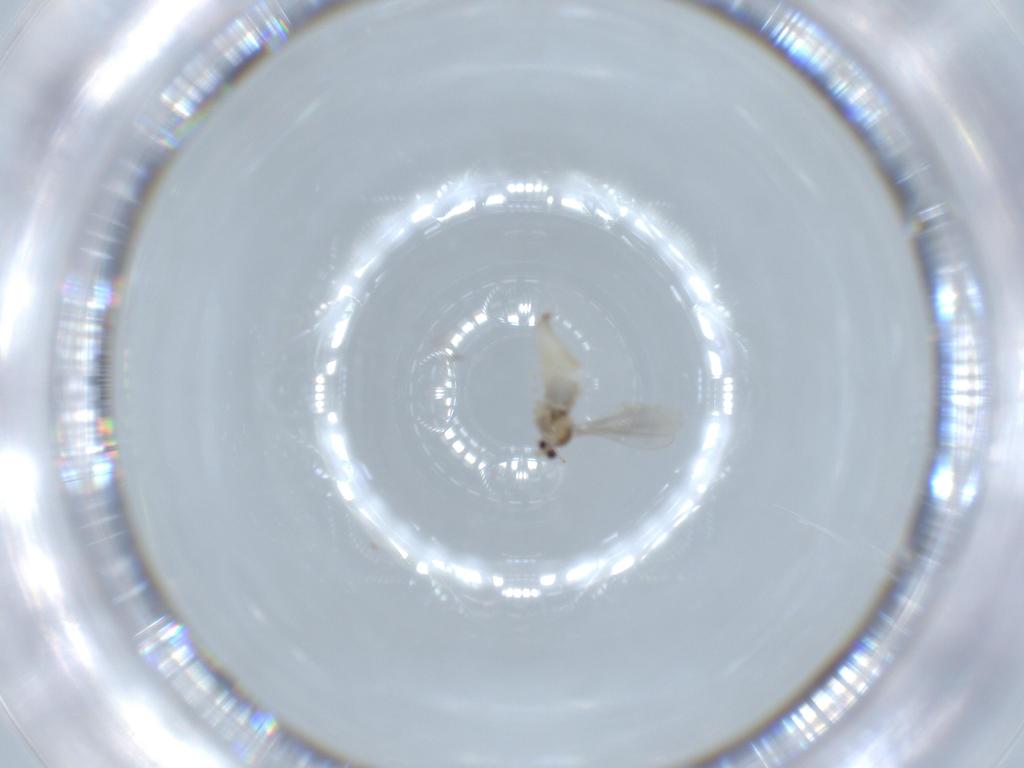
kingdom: Animalia
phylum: Arthropoda
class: Insecta
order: Diptera
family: Cecidomyiidae
